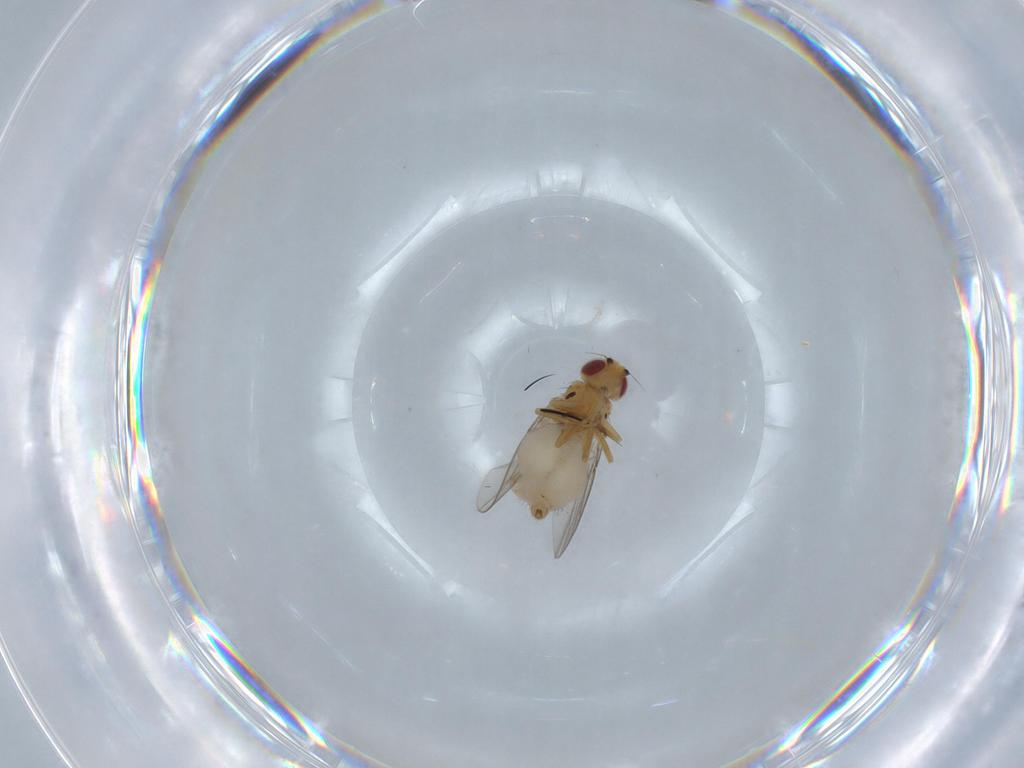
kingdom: Animalia
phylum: Arthropoda
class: Insecta
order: Diptera
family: Chloropidae
